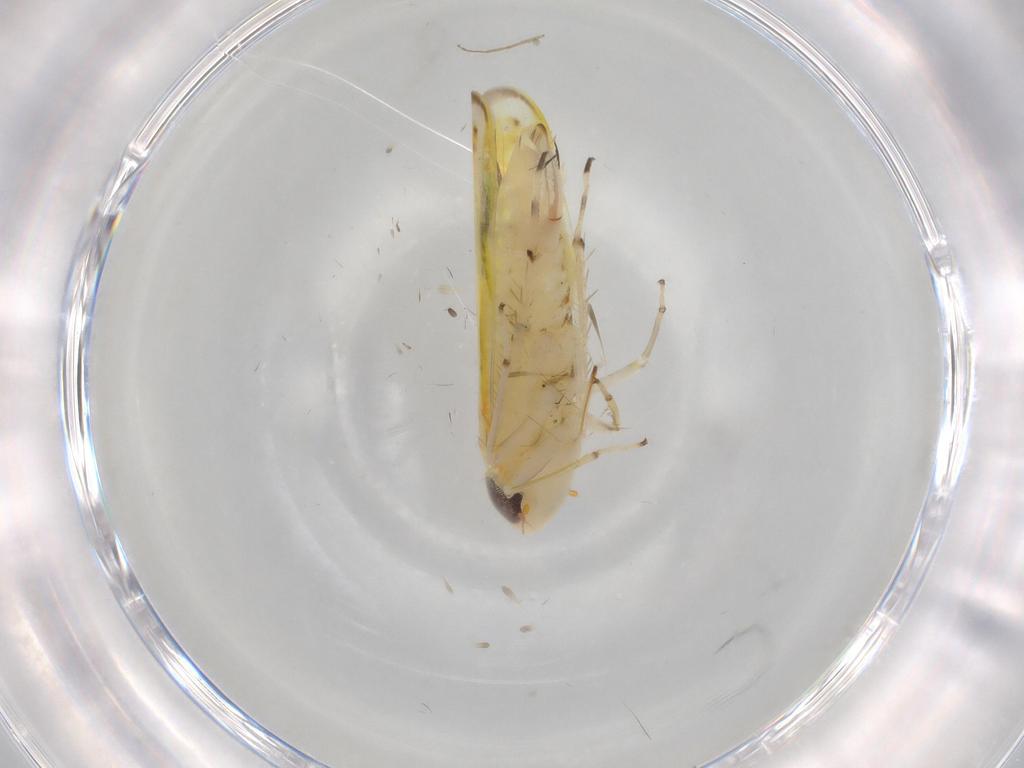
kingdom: Animalia
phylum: Arthropoda
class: Insecta
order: Hemiptera
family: Cicadellidae
